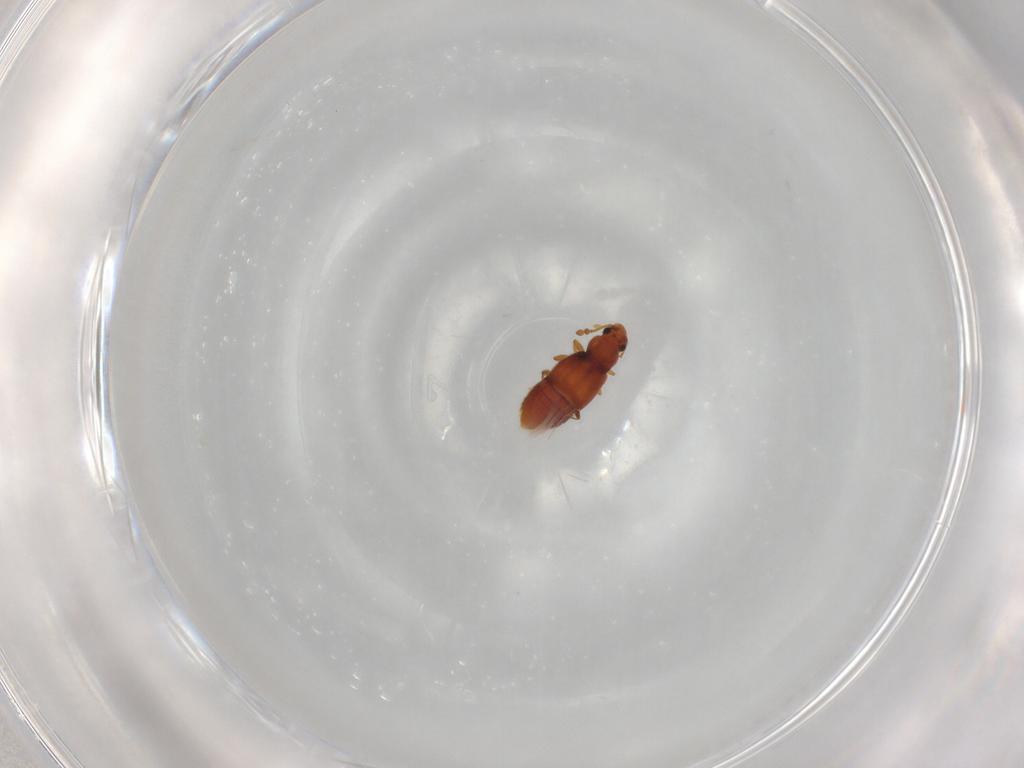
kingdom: Animalia
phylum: Arthropoda
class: Insecta
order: Coleoptera
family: Staphylinidae
